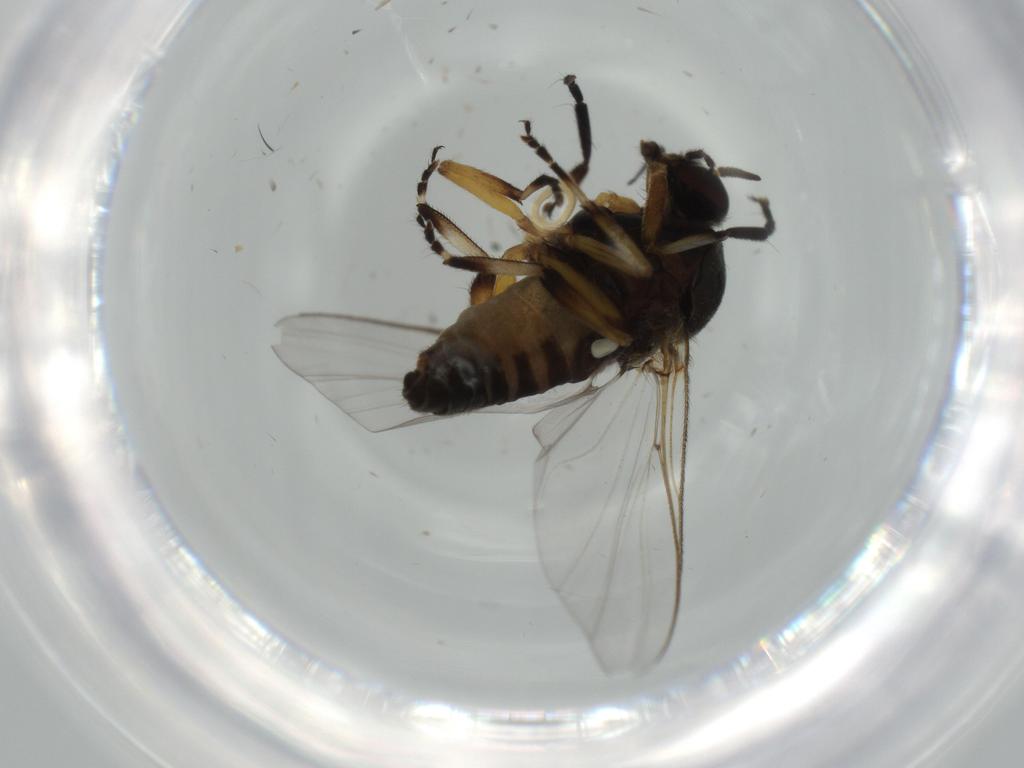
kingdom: Animalia
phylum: Arthropoda
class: Insecta
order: Diptera
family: Simuliidae
